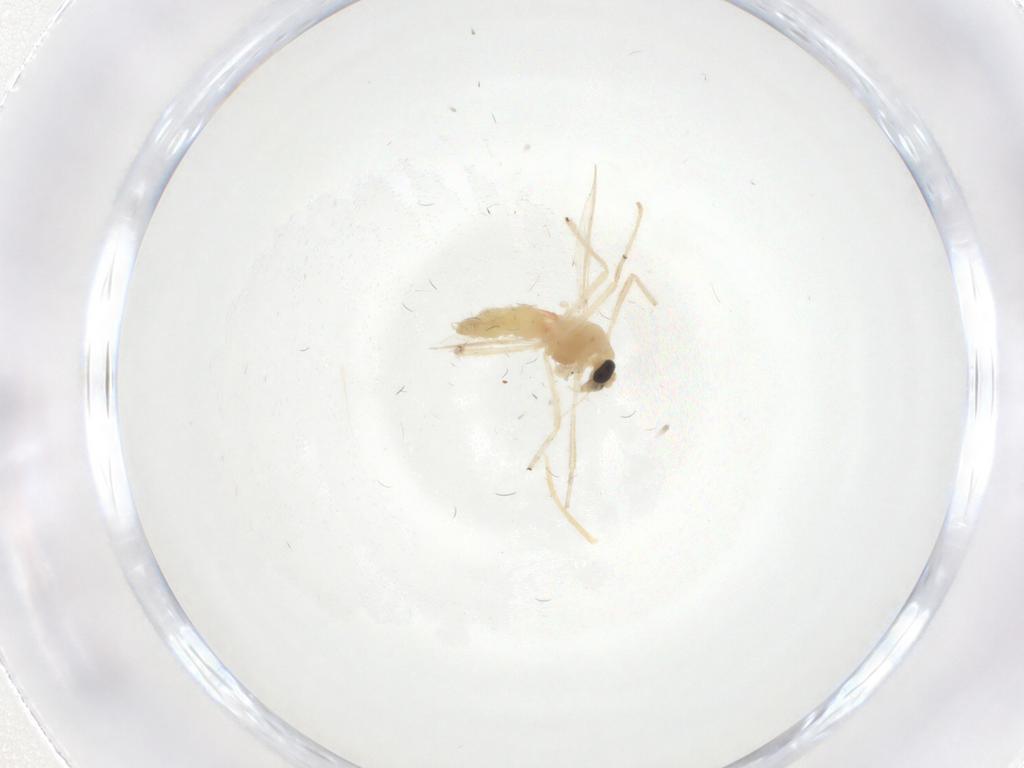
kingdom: Animalia
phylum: Arthropoda
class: Insecta
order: Diptera
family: Chironomidae
